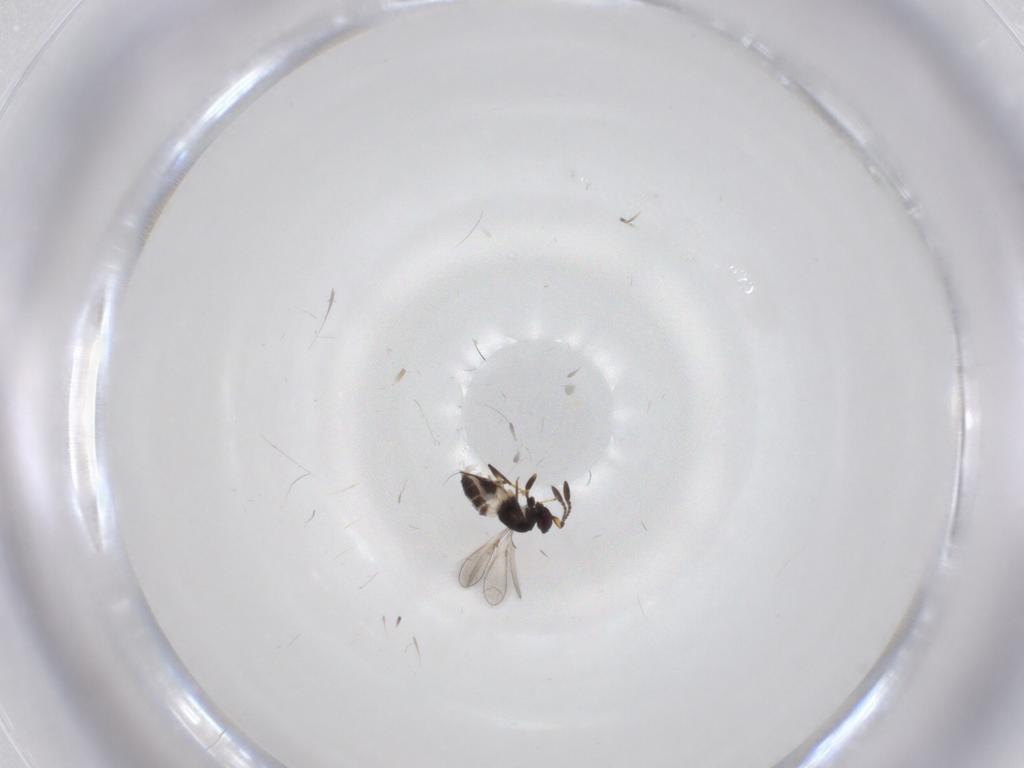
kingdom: Animalia
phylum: Arthropoda
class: Insecta
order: Hymenoptera
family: Mymaridae
